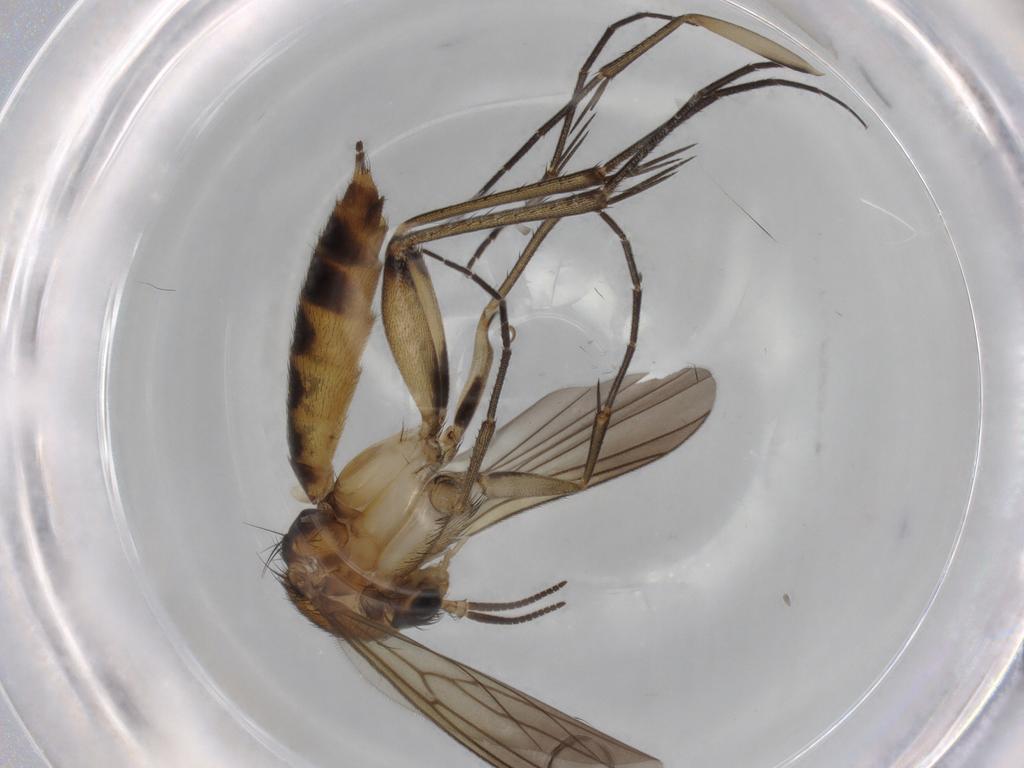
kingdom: Animalia
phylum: Arthropoda
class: Insecta
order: Diptera
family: Mycetophilidae
